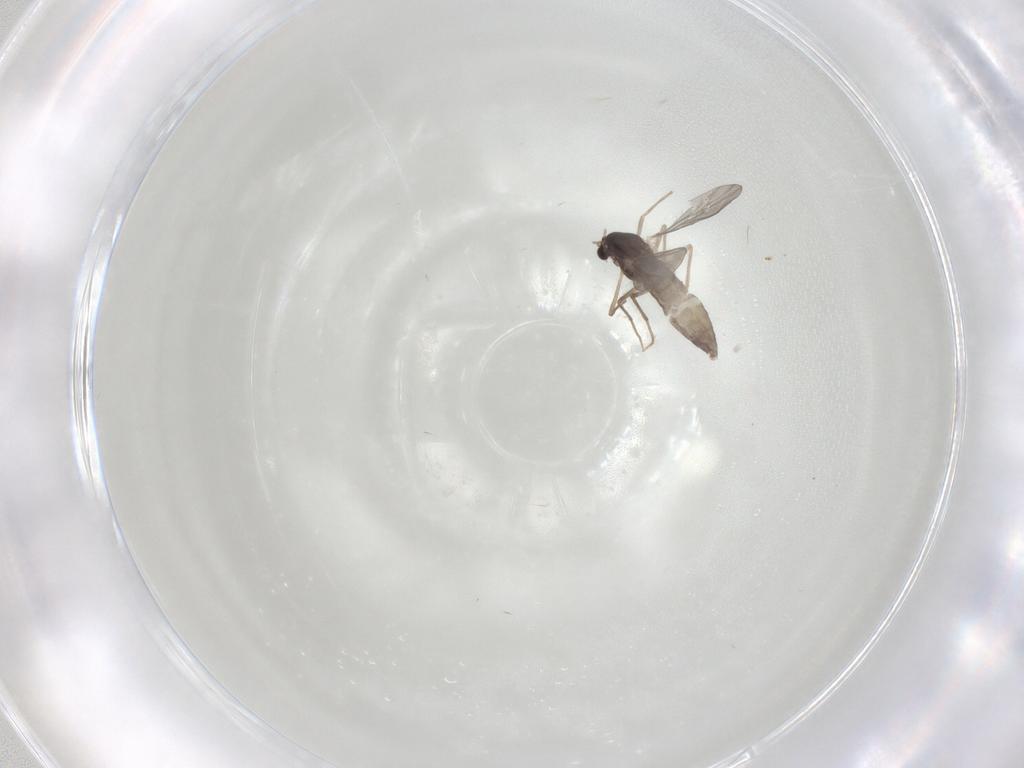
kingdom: Animalia
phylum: Arthropoda
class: Insecta
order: Diptera
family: Chironomidae
